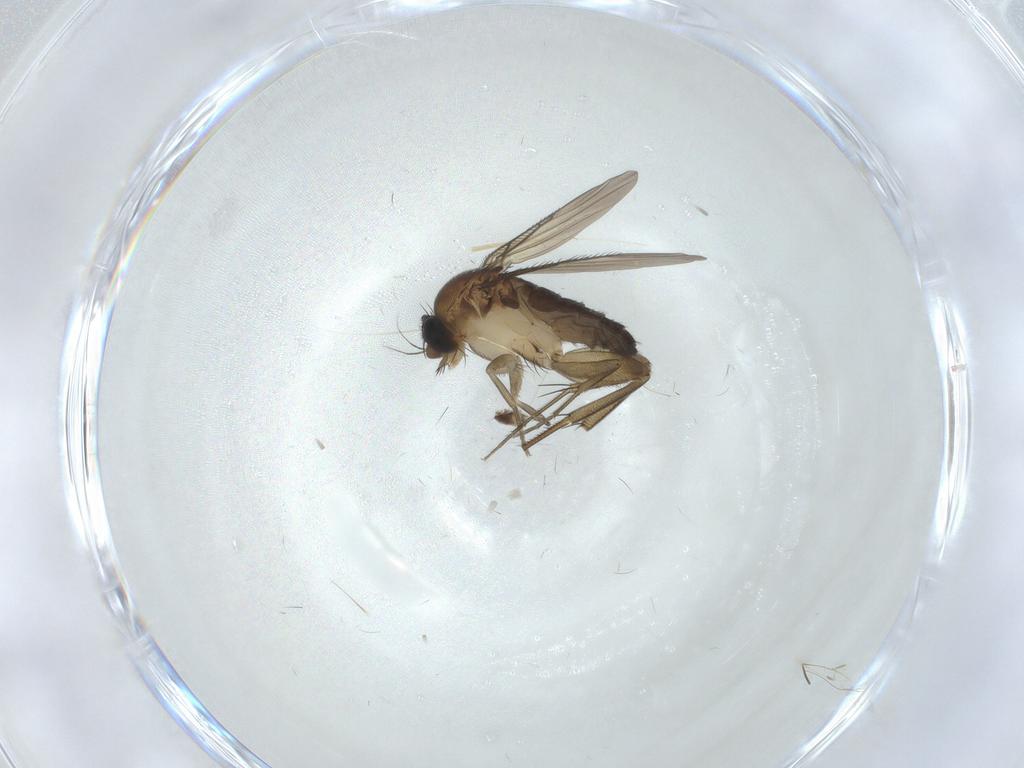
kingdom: Animalia
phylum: Arthropoda
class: Insecta
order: Diptera
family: Phoridae
